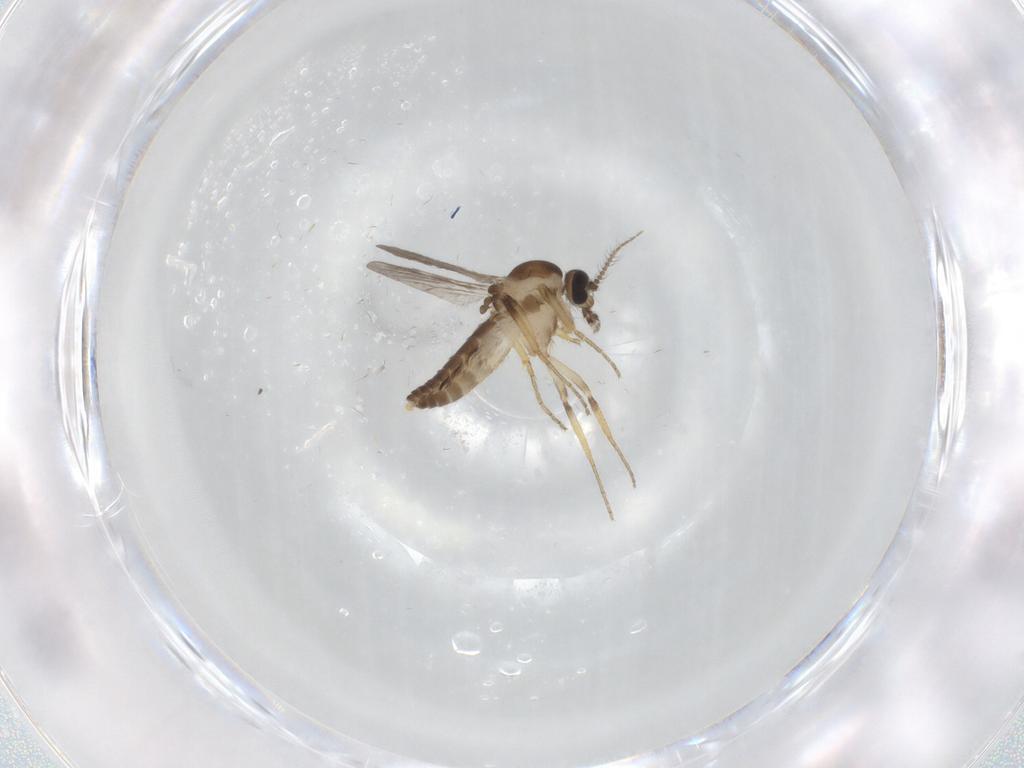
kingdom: Animalia
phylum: Arthropoda
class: Insecta
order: Diptera
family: Ceratopogonidae
